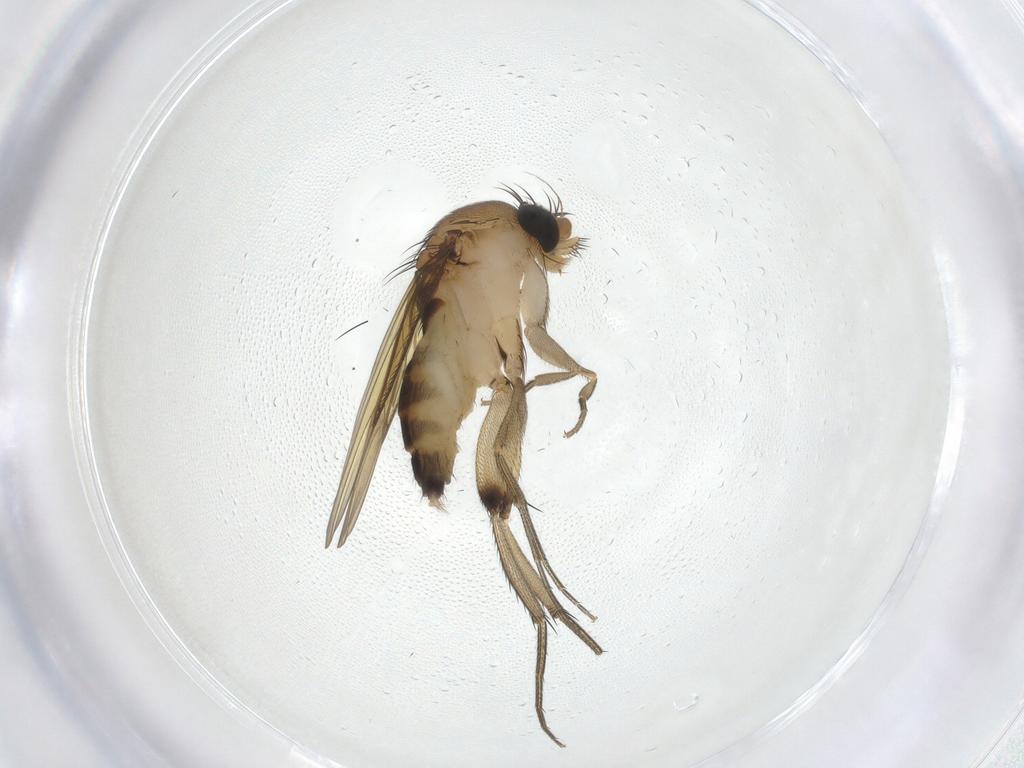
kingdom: Animalia
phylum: Arthropoda
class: Insecta
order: Diptera
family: Phoridae
